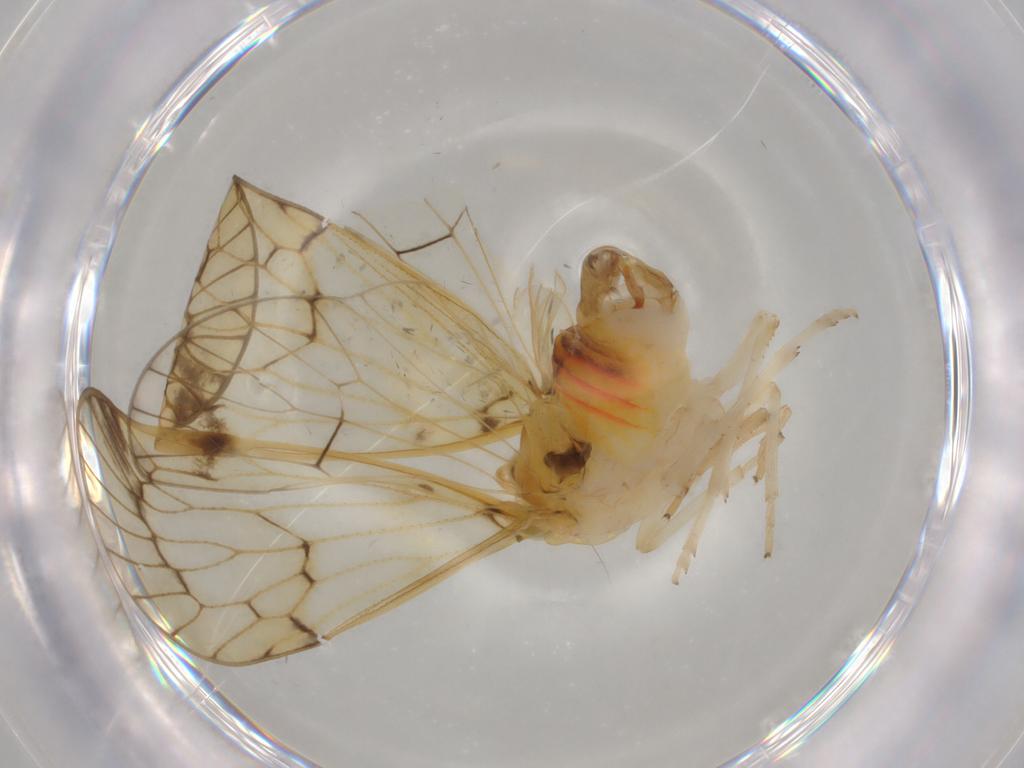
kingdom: Animalia
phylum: Arthropoda
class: Insecta
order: Hemiptera
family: Cixiidae
